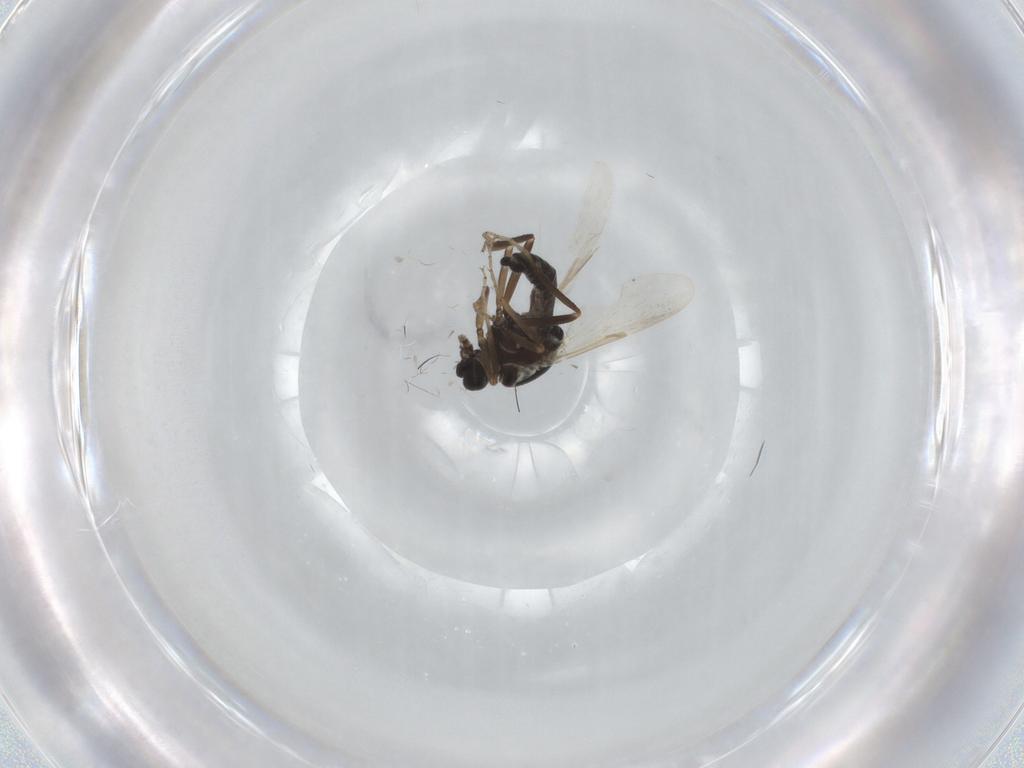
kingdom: Animalia
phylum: Arthropoda
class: Insecta
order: Diptera
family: Ceratopogonidae
